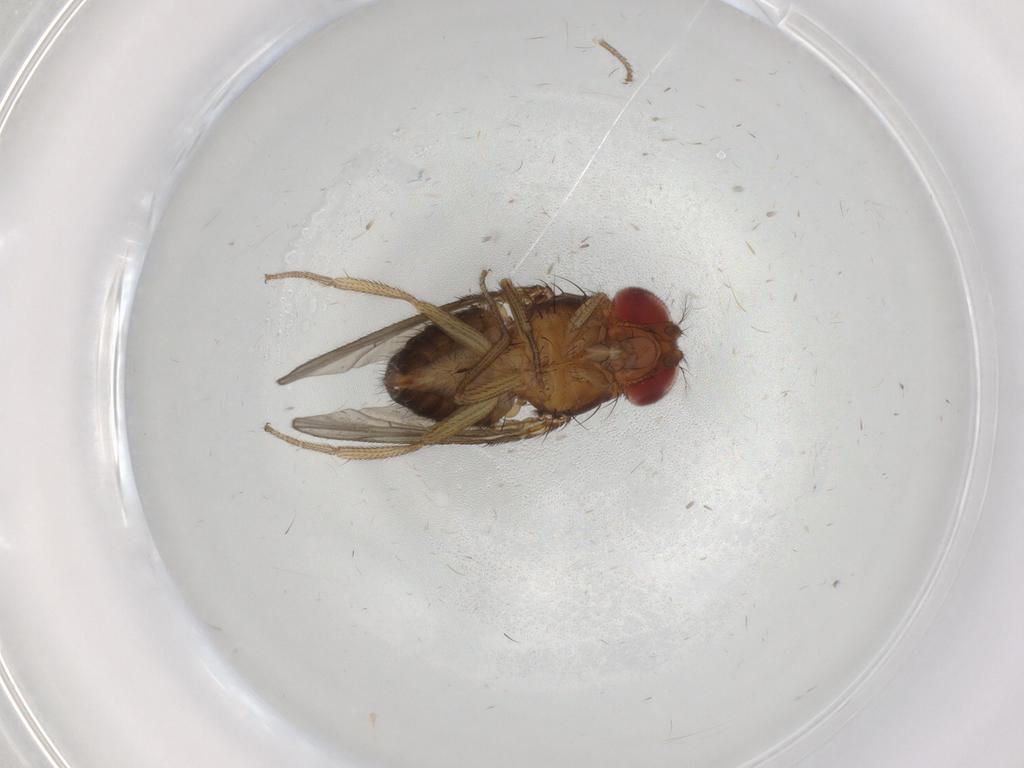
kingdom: Animalia
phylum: Arthropoda
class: Insecta
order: Diptera
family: Drosophilidae
